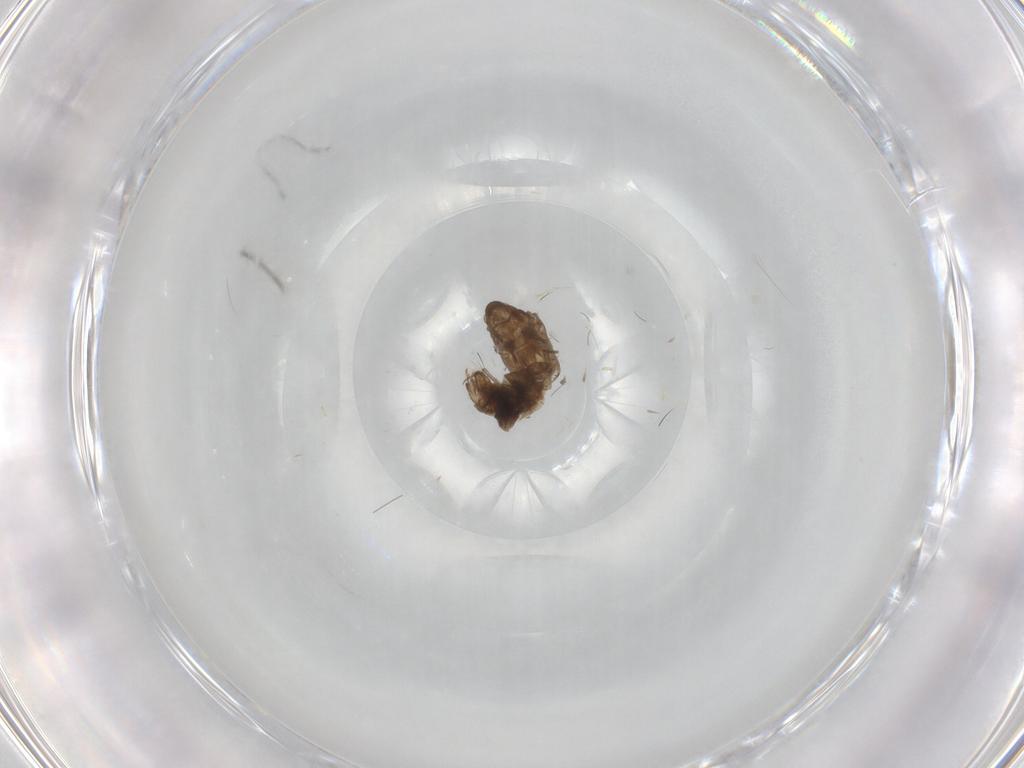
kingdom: Animalia
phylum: Arthropoda
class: Insecta
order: Diptera
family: Cecidomyiidae
